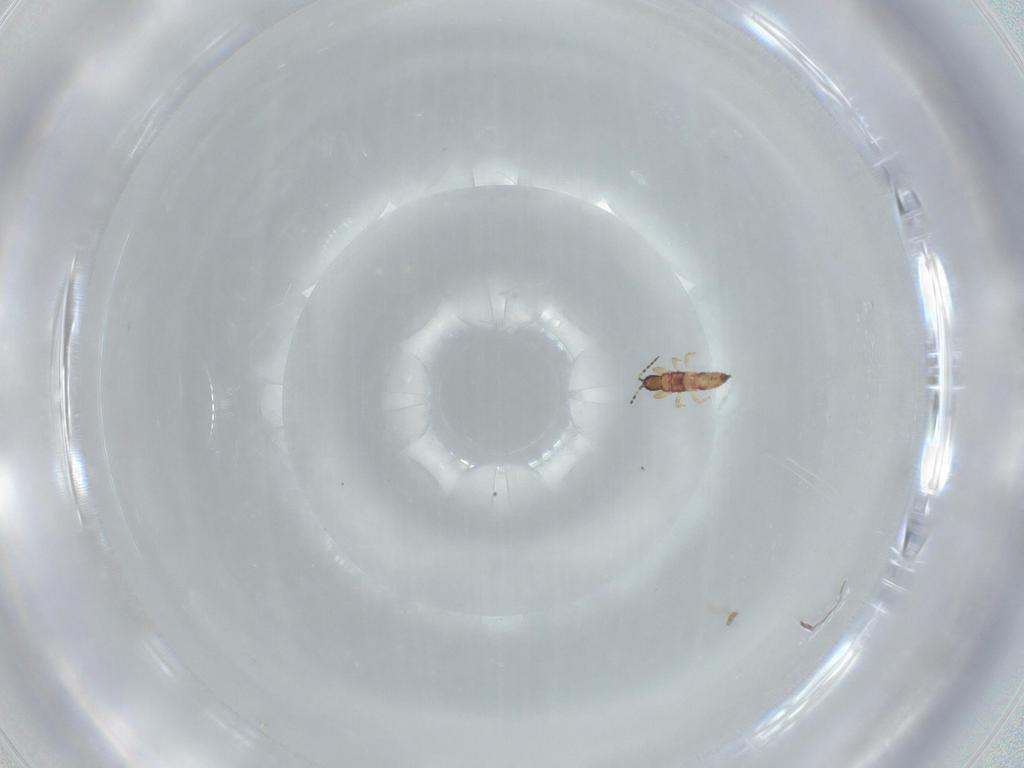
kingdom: Animalia
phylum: Arthropoda
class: Insecta
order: Thysanoptera
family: Phlaeothripidae
